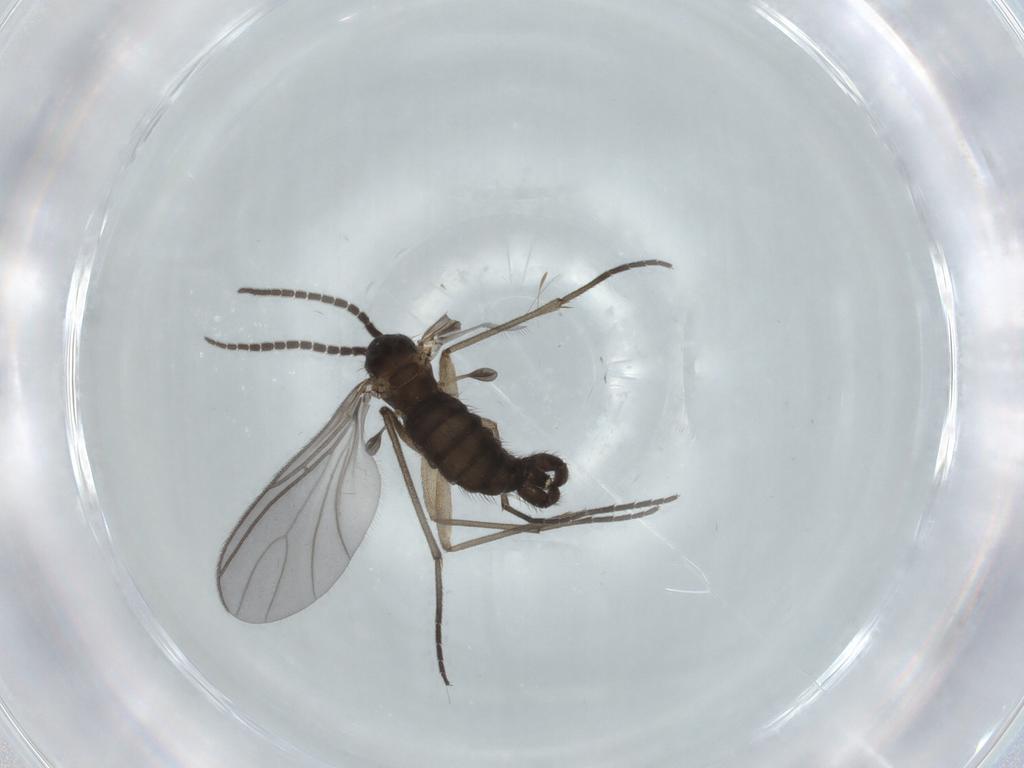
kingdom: Animalia
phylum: Arthropoda
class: Insecta
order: Diptera
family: Sciaridae
